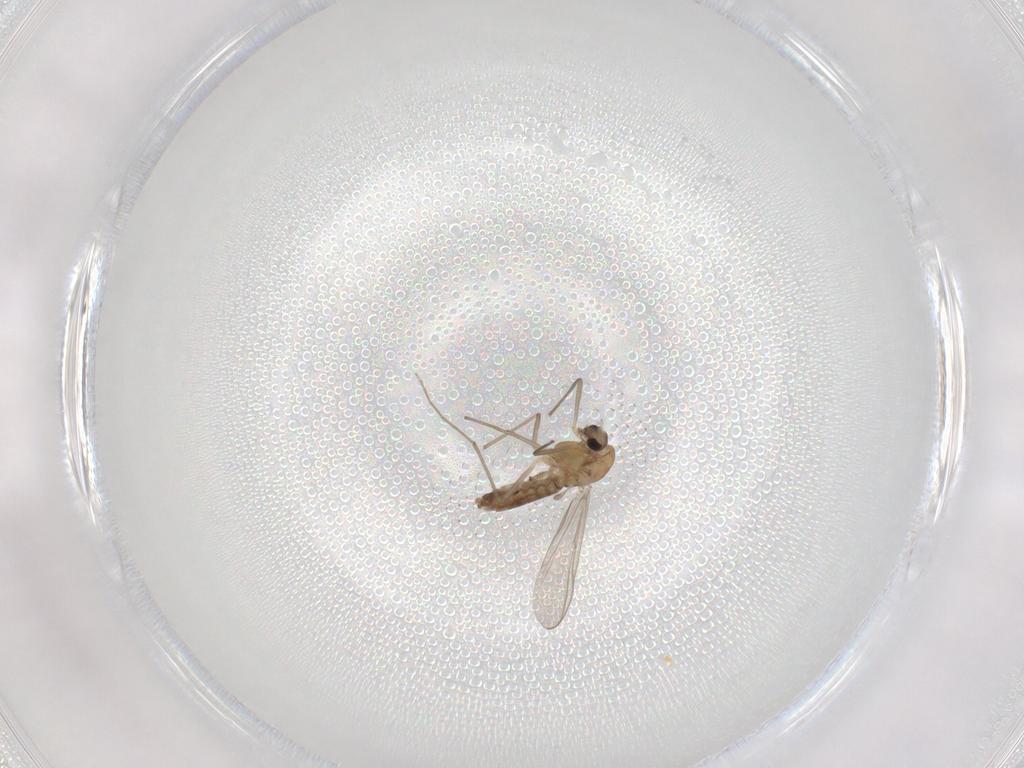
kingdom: Animalia
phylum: Arthropoda
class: Insecta
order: Diptera
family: Chironomidae
